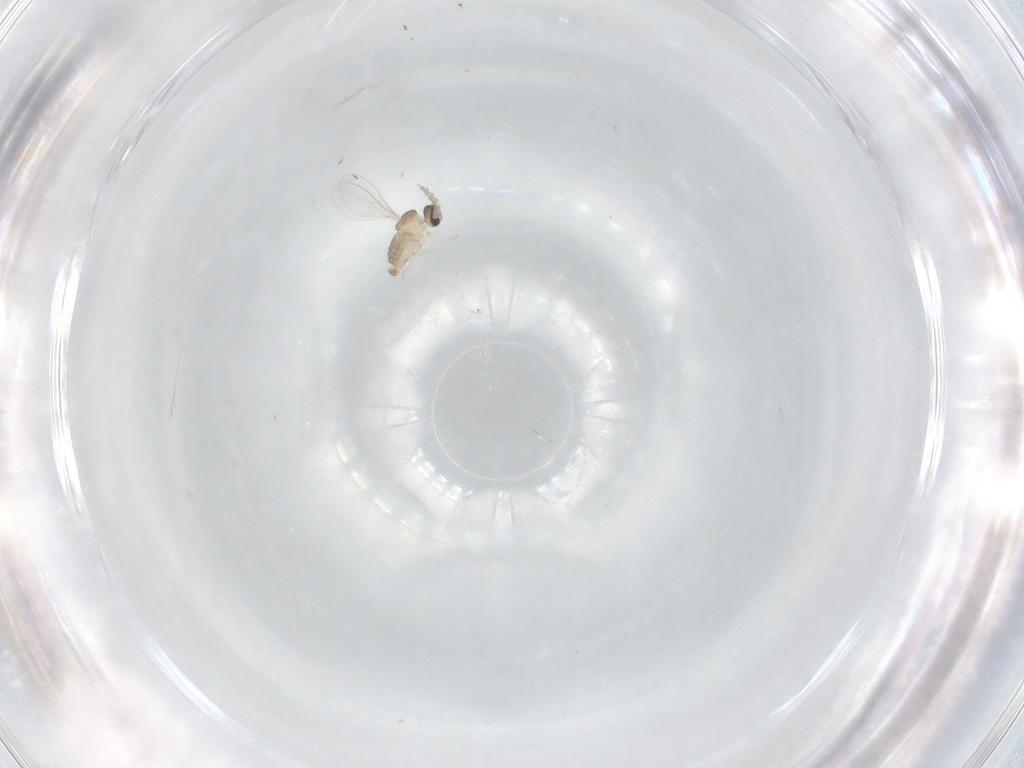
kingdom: Animalia
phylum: Arthropoda
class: Insecta
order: Diptera
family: Cecidomyiidae
